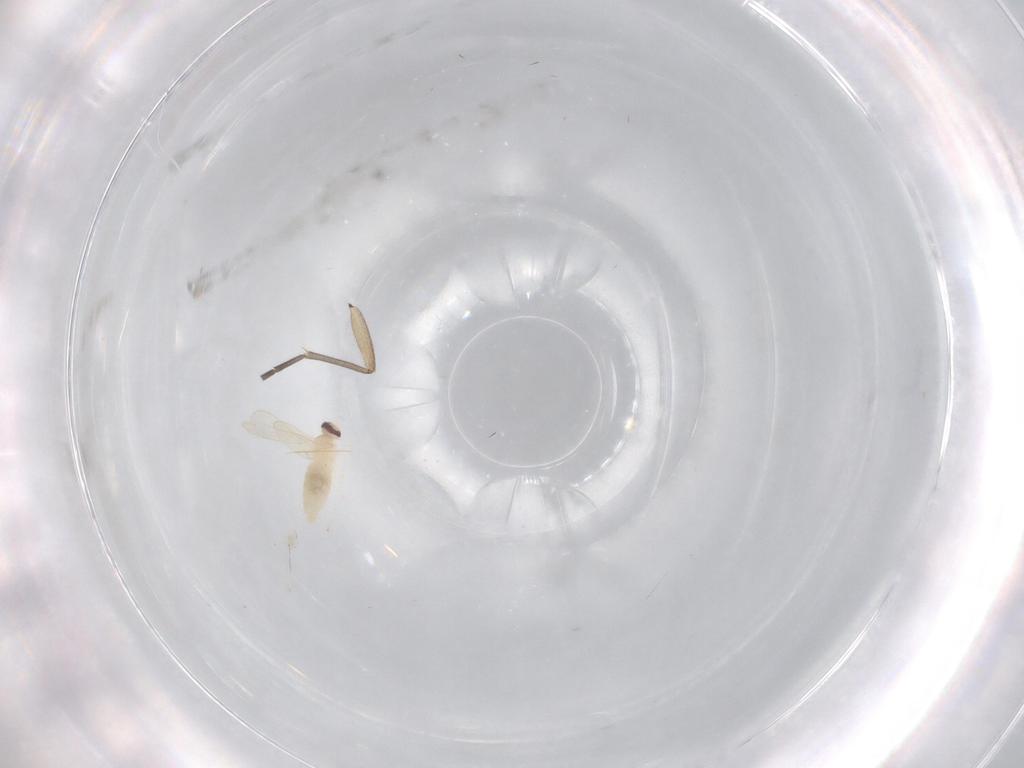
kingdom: Animalia
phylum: Arthropoda
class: Insecta
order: Diptera
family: Sciaridae
